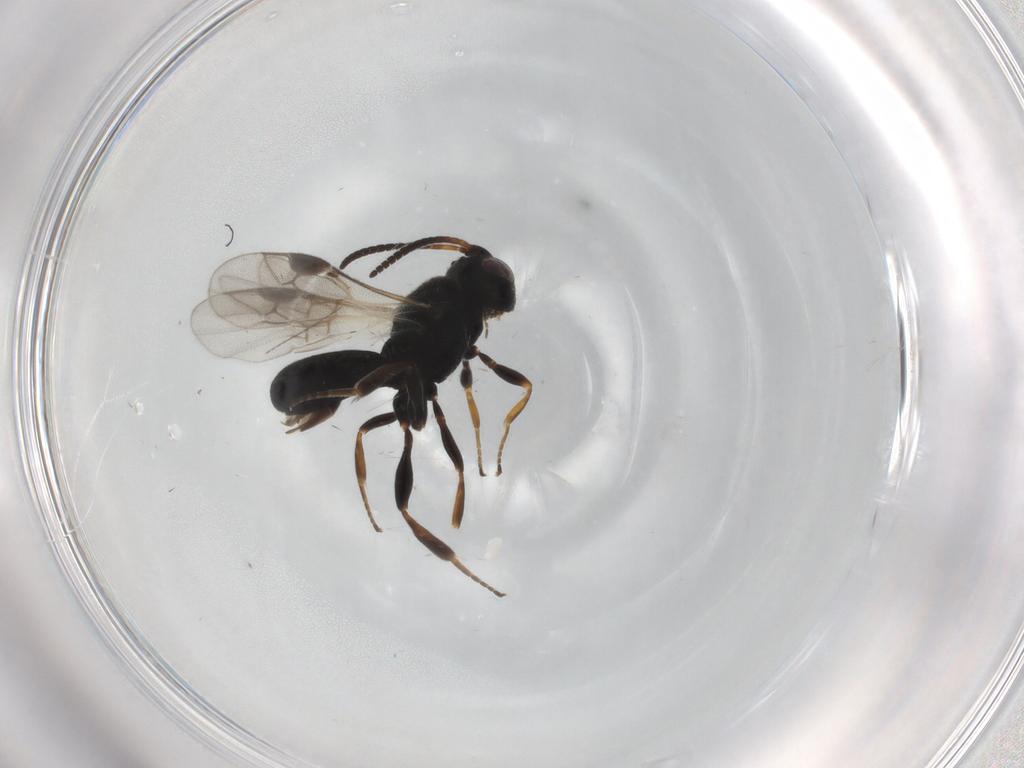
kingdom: Animalia
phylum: Arthropoda
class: Insecta
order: Hymenoptera
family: Braconidae
